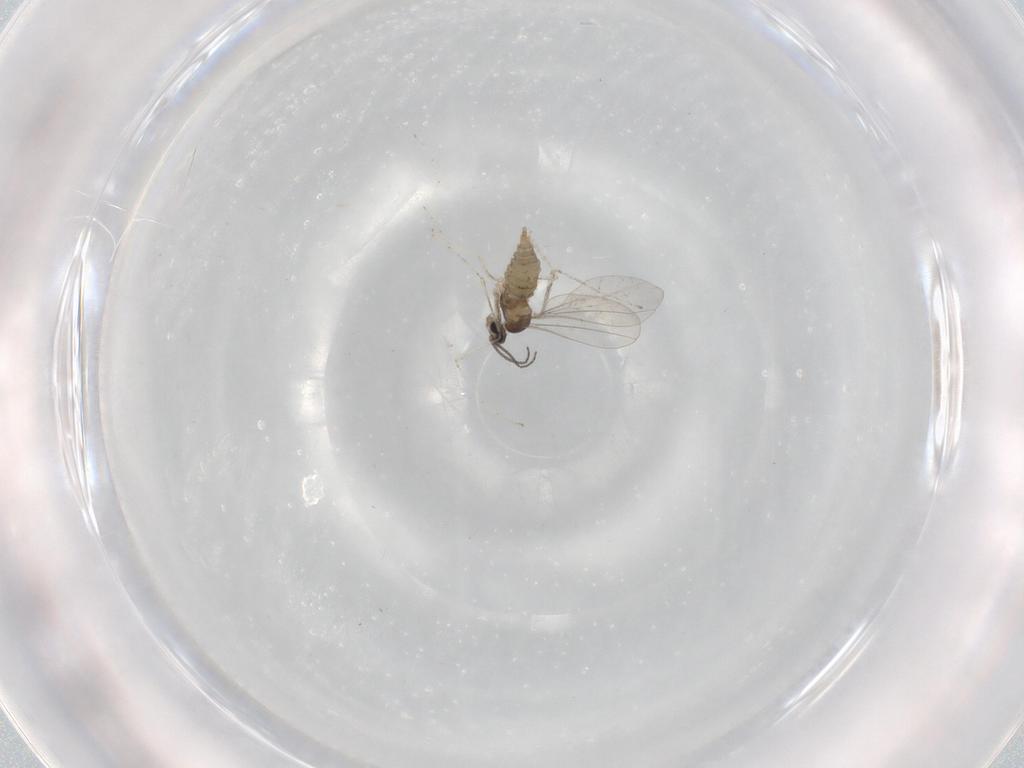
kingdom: Animalia
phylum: Arthropoda
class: Insecta
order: Diptera
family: Cecidomyiidae
